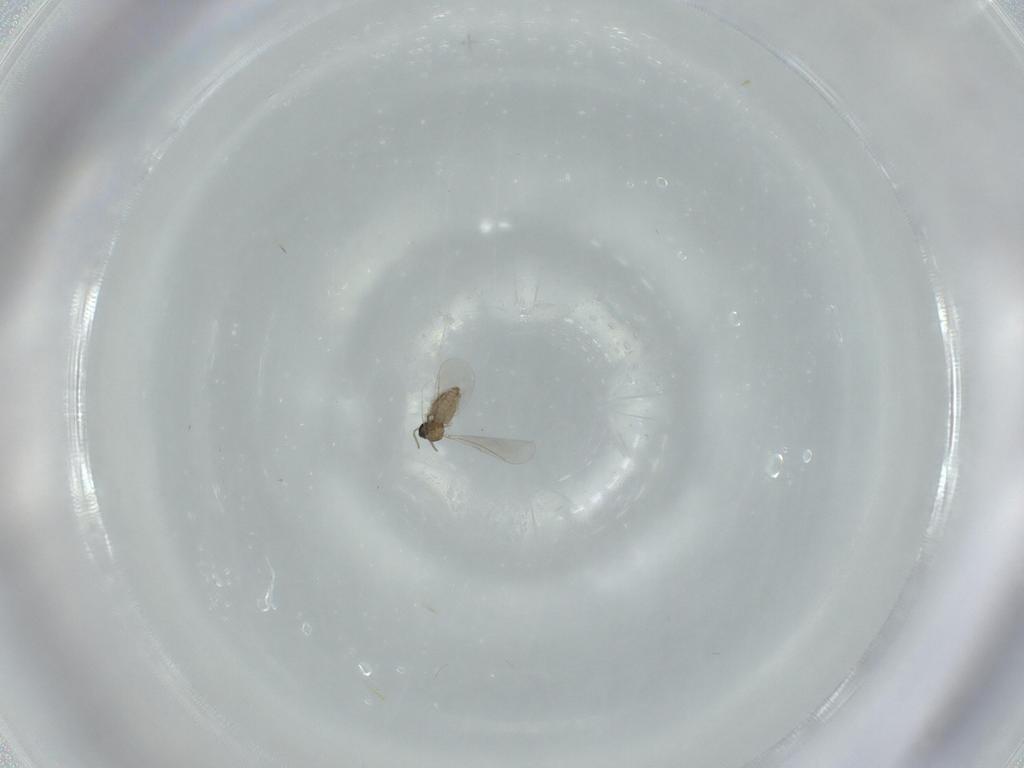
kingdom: Animalia
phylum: Arthropoda
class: Insecta
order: Diptera
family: Cecidomyiidae
